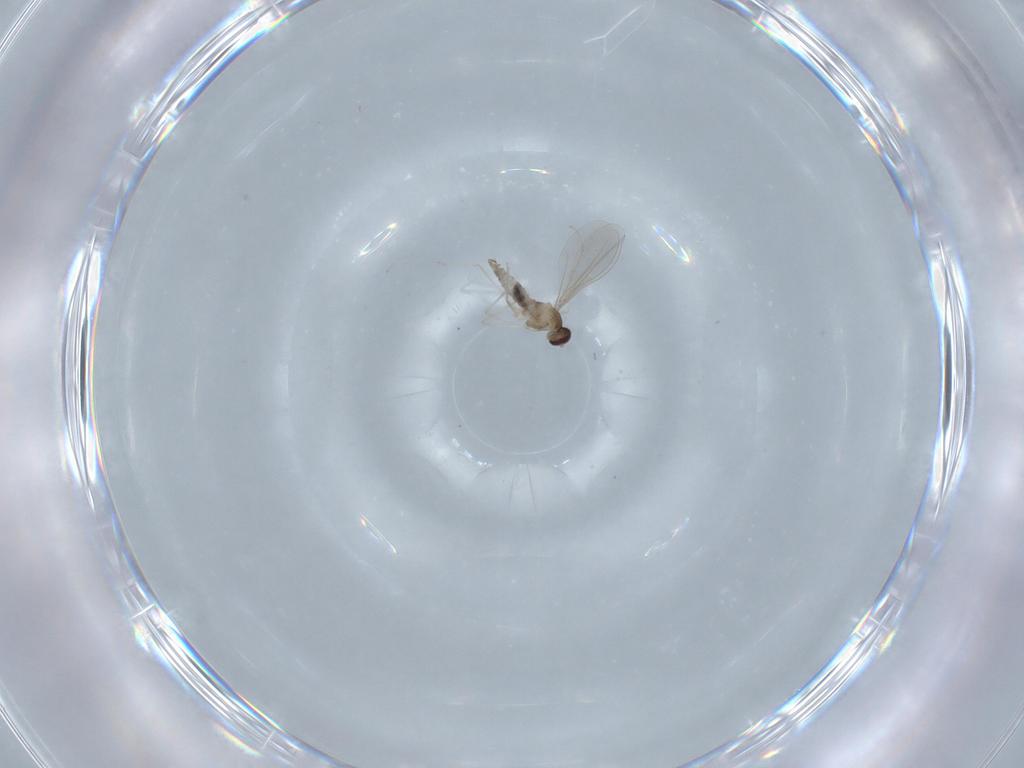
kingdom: Animalia
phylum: Arthropoda
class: Insecta
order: Diptera
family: Cecidomyiidae
